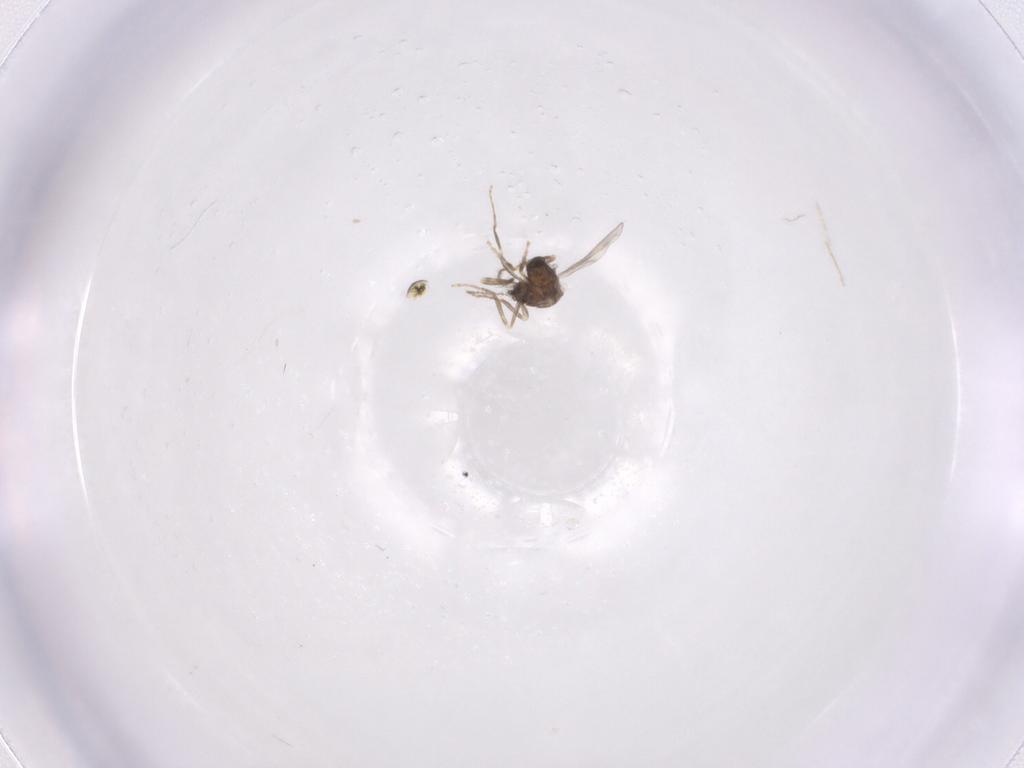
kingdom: Animalia
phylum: Arthropoda
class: Insecta
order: Diptera
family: Ceratopogonidae
